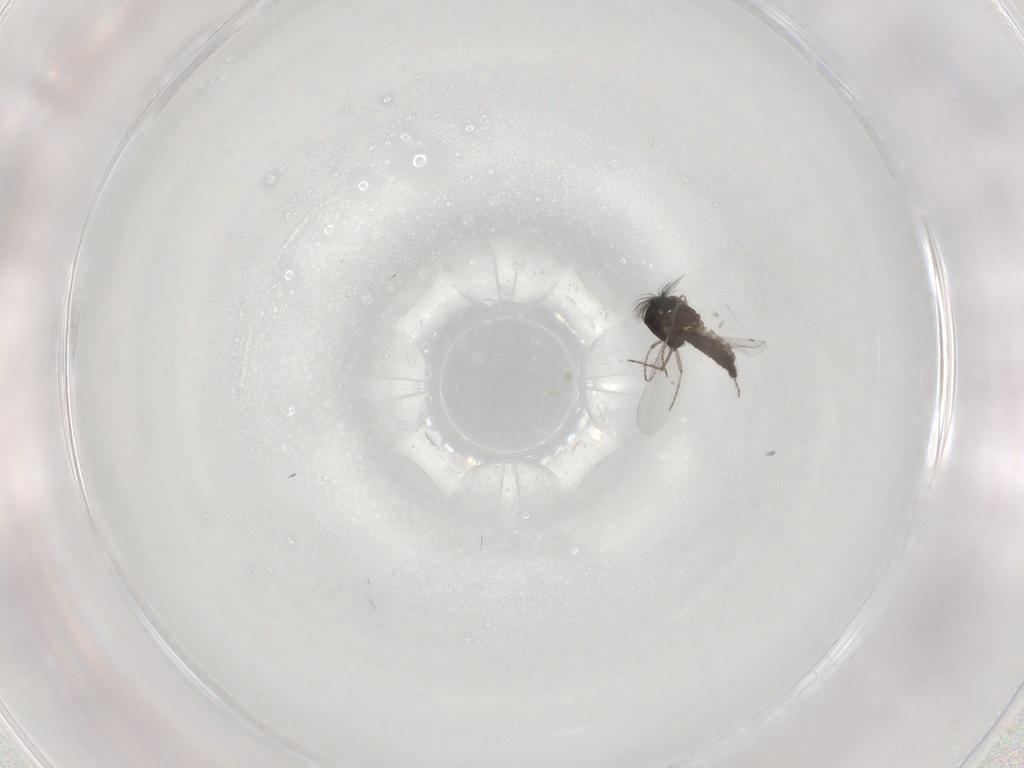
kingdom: Animalia
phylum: Arthropoda
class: Insecta
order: Diptera
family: Ceratopogonidae
